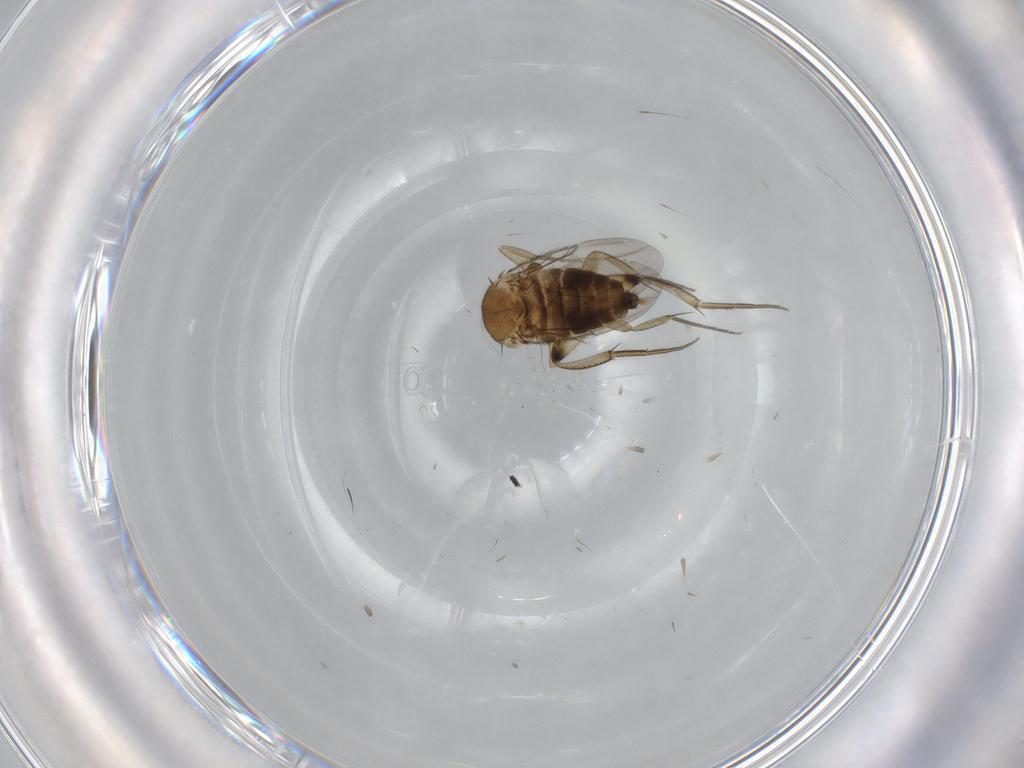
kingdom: Animalia
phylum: Arthropoda
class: Insecta
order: Diptera
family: Phoridae
